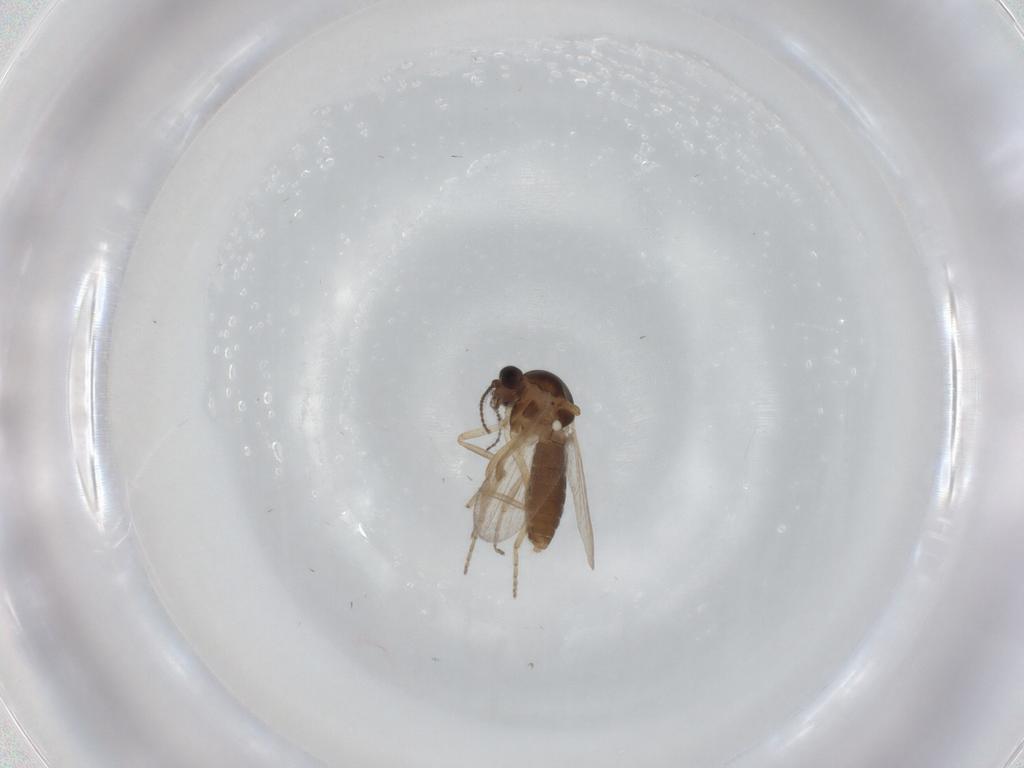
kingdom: Animalia
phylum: Arthropoda
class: Insecta
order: Diptera
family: Ceratopogonidae
